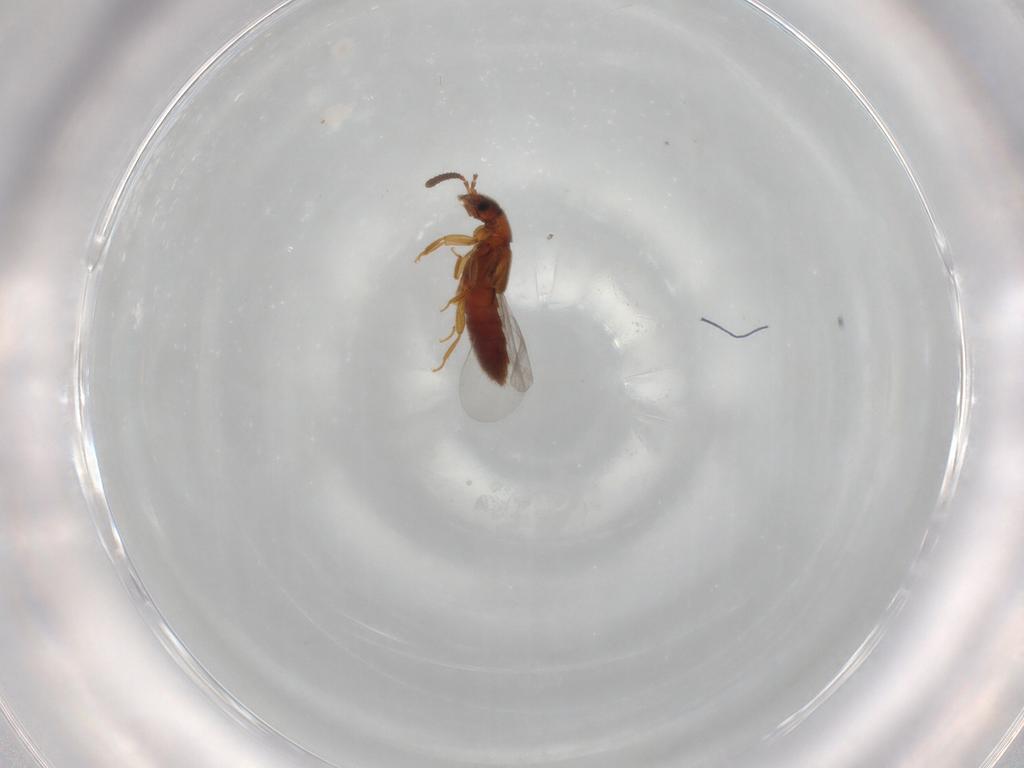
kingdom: Animalia
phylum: Arthropoda
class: Insecta
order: Coleoptera
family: Staphylinidae
